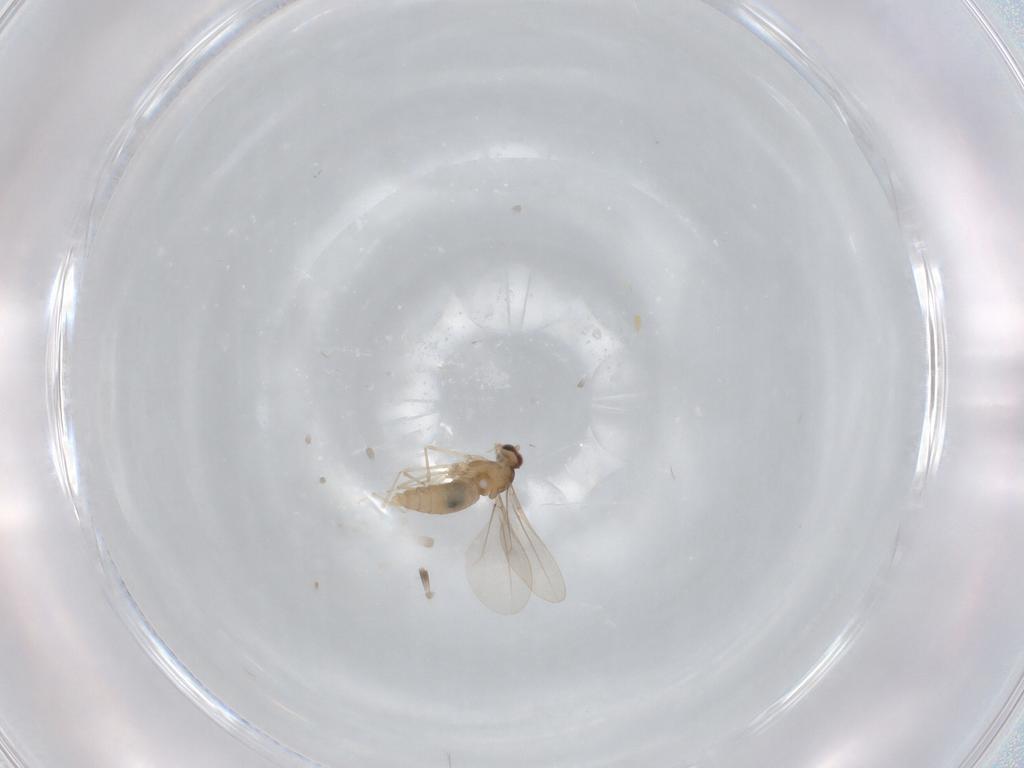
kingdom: Animalia
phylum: Arthropoda
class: Insecta
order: Diptera
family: Cecidomyiidae
